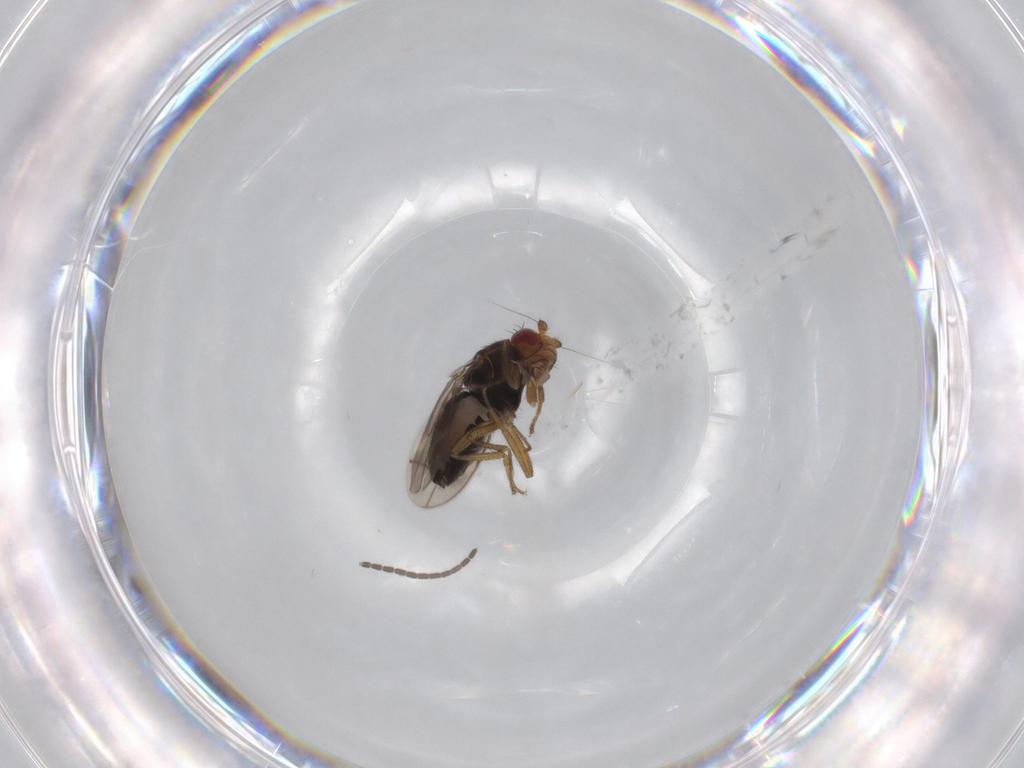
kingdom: Animalia
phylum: Arthropoda
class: Insecta
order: Diptera
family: Sphaeroceridae
